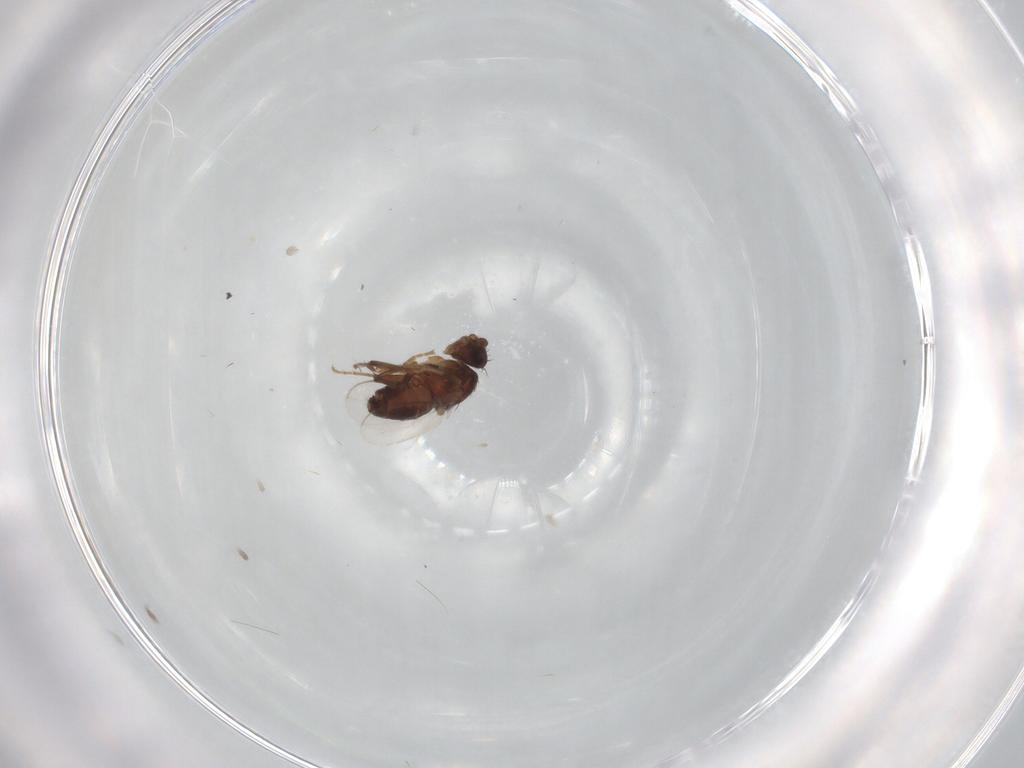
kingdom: Animalia
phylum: Arthropoda
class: Insecta
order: Diptera
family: Sphaeroceridae
